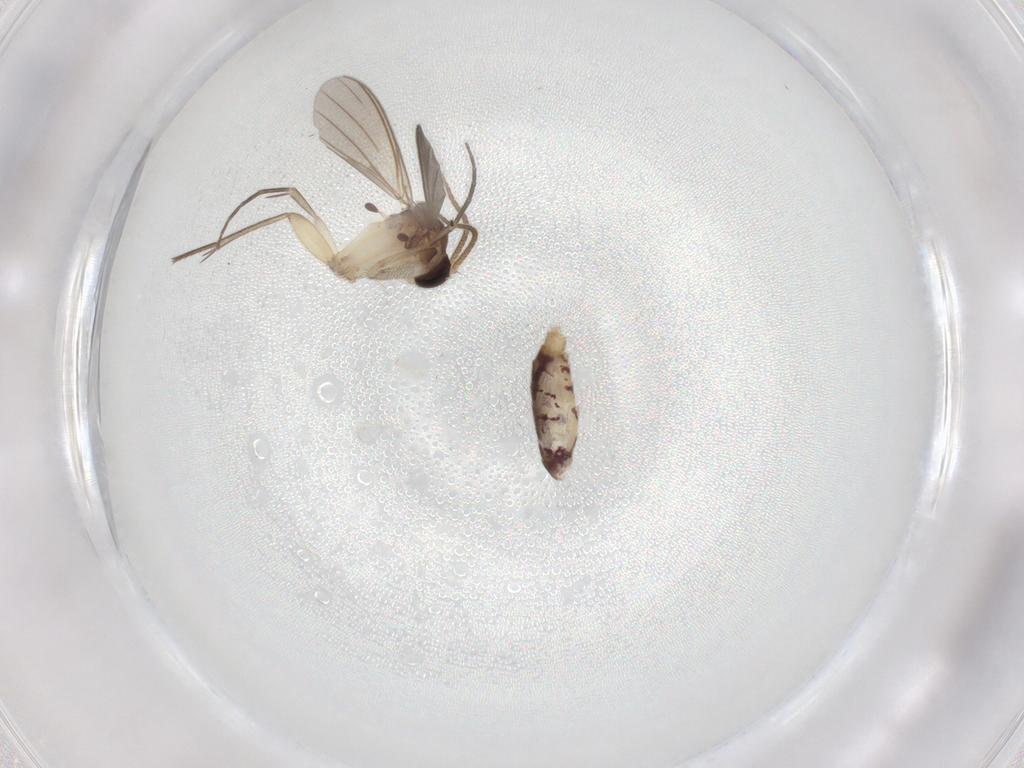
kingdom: Animalia
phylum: Arthropoda
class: Insecta
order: Diptera
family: Mycetophilidae
